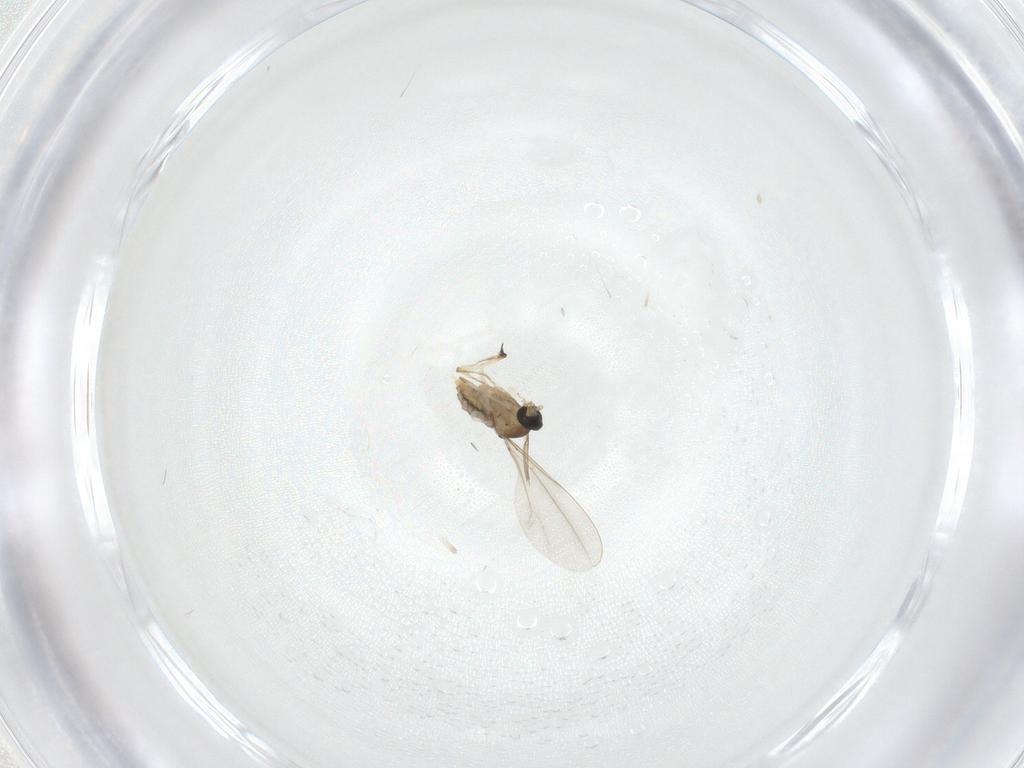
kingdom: Animalia
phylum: Arthropoda
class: Insecta
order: Diptera
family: Cecidomyiidae
